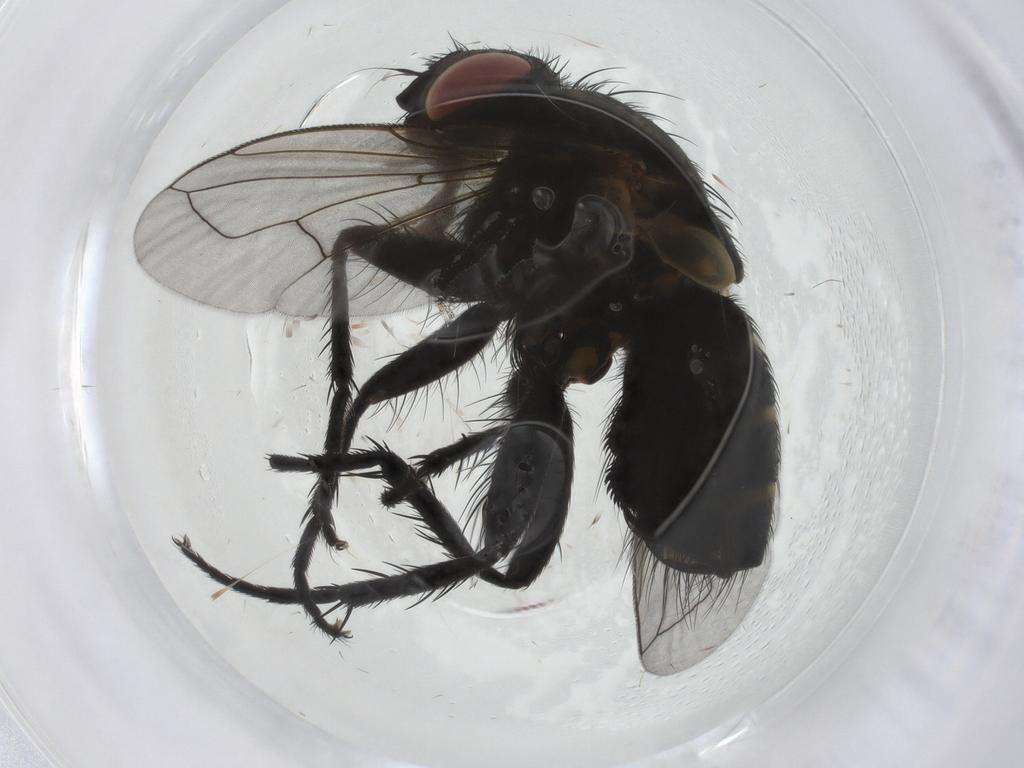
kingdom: Animalia
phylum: Arthropoda
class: Insecta
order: Diptera
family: Tachinidae
